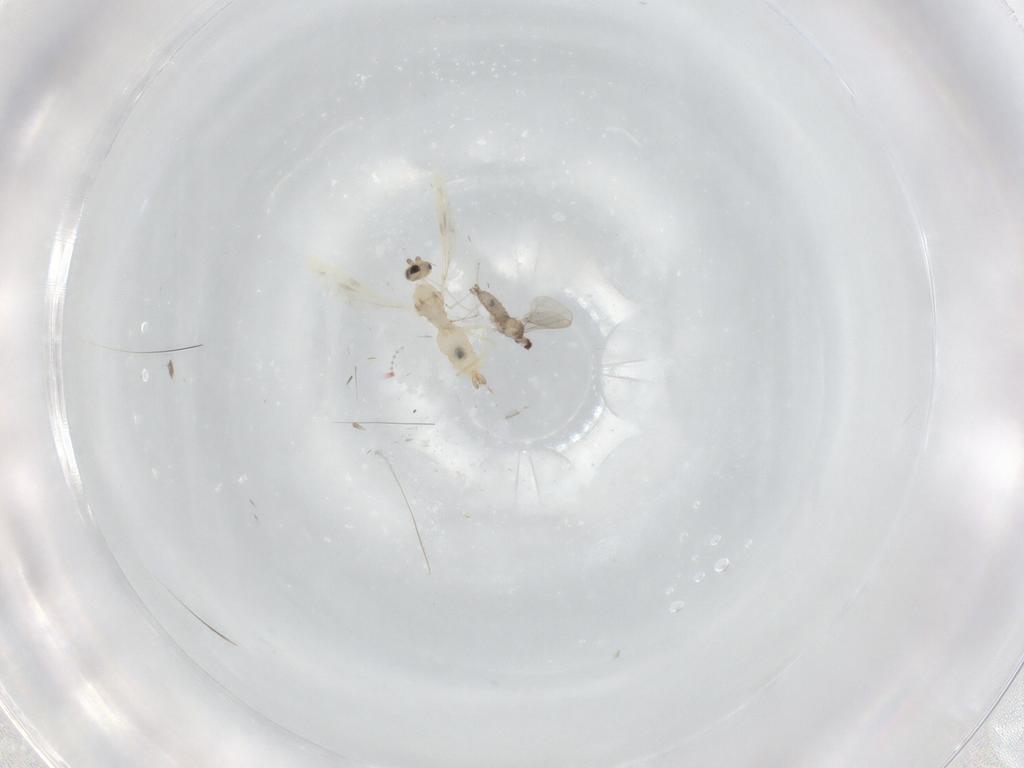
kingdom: Animalia
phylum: Arthropoda
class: Insecta
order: Diptera
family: Cecidomyiidae
